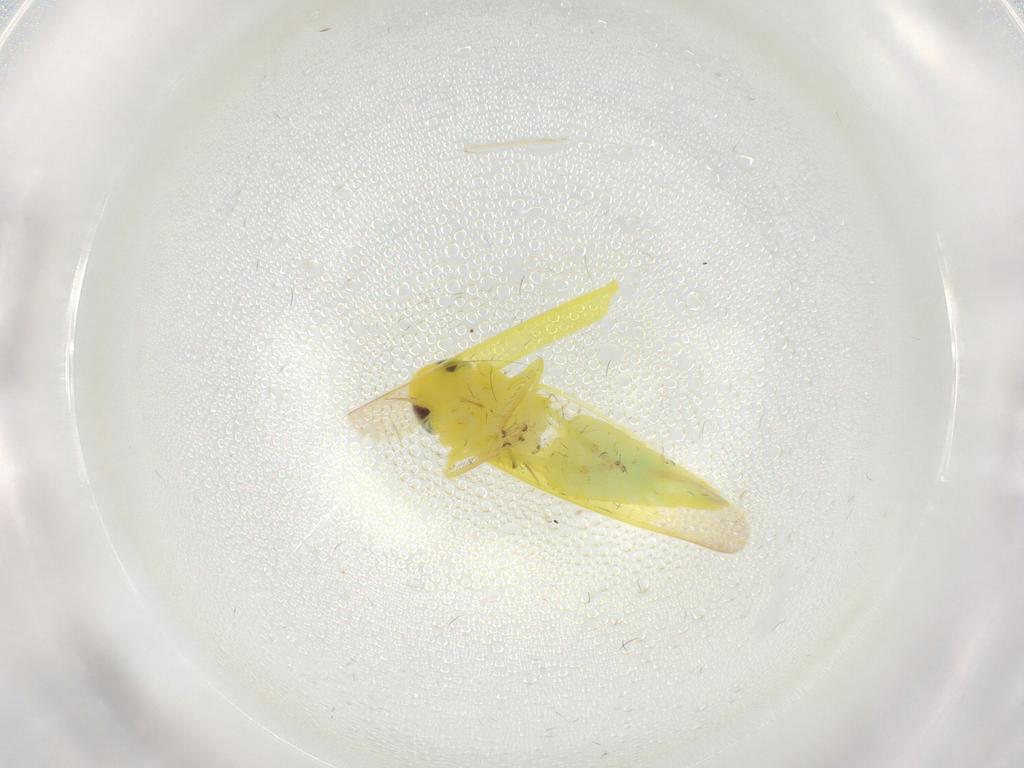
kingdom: Animalia
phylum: Arthropoda
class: Insecta
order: Hemiptera
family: Cicadellidae
